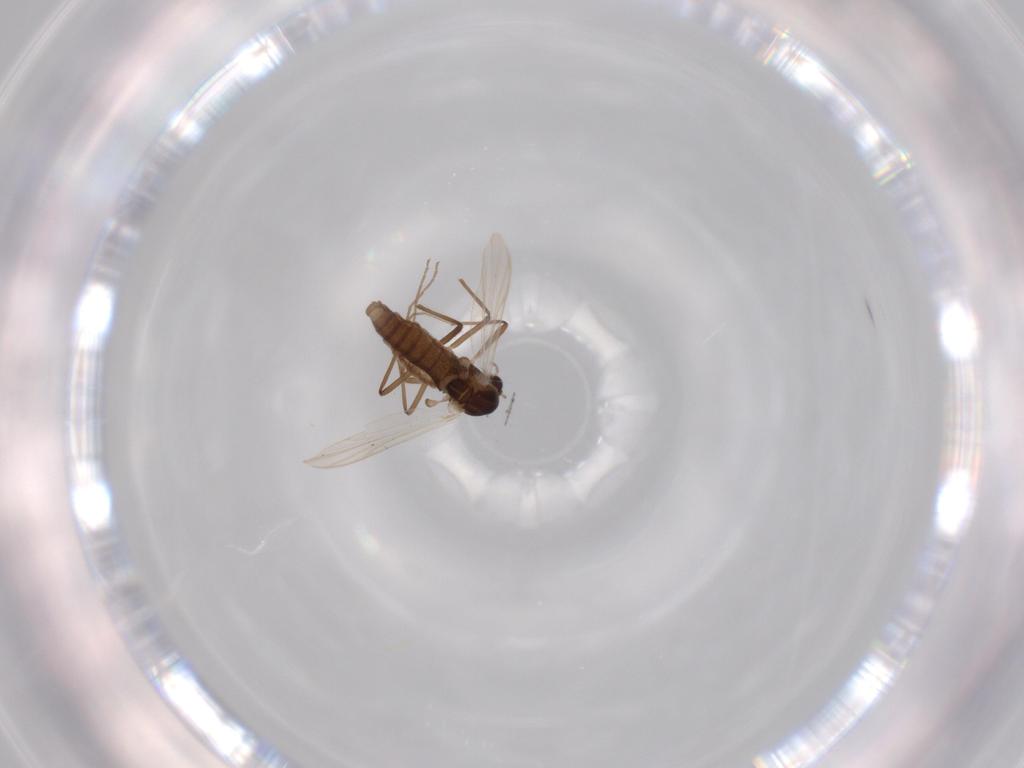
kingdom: Animalia
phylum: Arthropoda
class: Insecta
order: Diptera
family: Chironomidae
